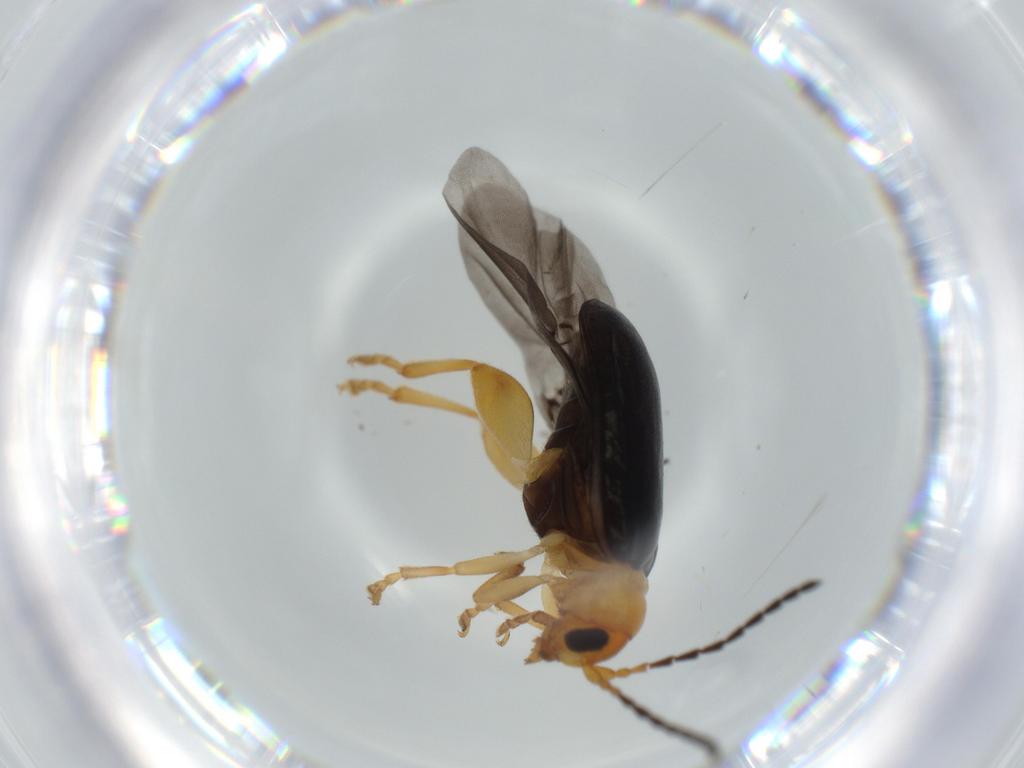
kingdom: Animalia
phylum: Arthropoda
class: Insecta
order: Coleoptera
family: Chrysomelidae
